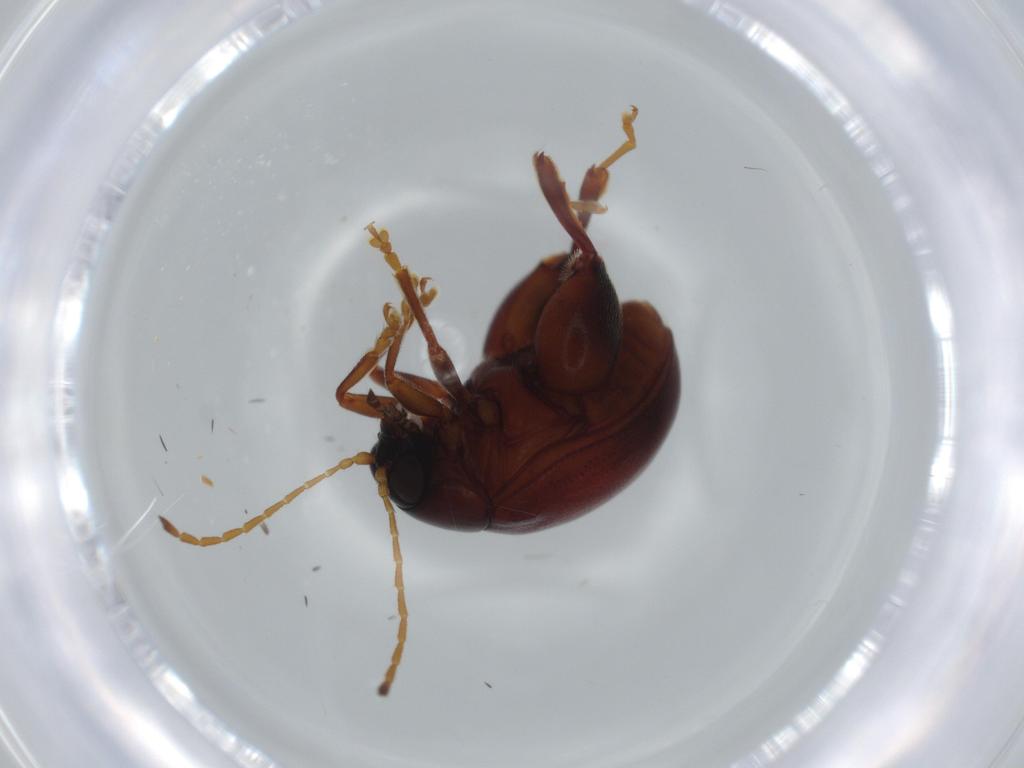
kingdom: Animalia
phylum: Arthropoda
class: Insecta
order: Coleoptera
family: Chrysomelidae
